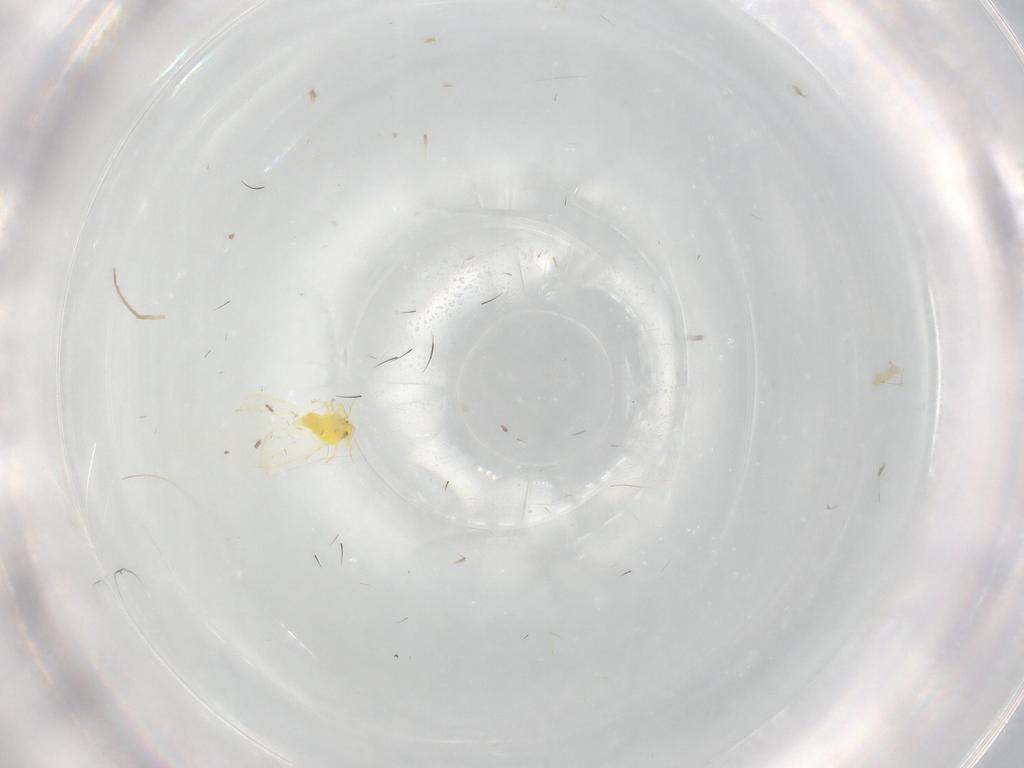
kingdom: Animalia
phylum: Arthropoda
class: Insecta
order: Hemiptera
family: Aleyrodidae
